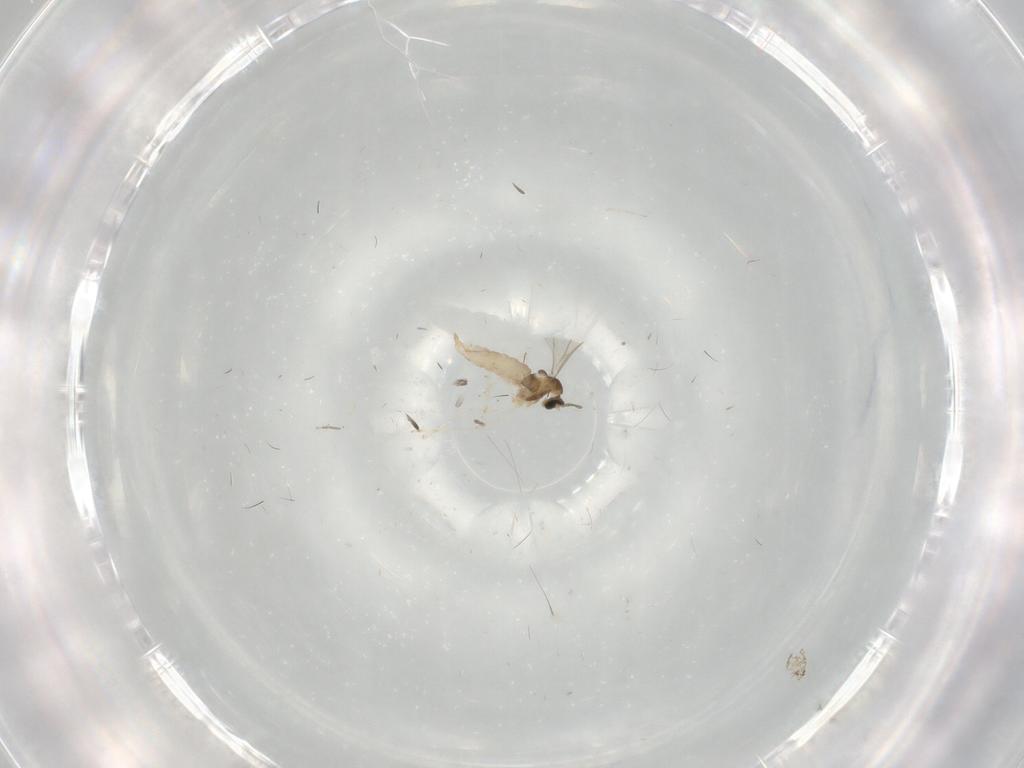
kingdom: Animalia
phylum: Arthropoda
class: Insecta
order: Diptera
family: Cecidomyiidae
